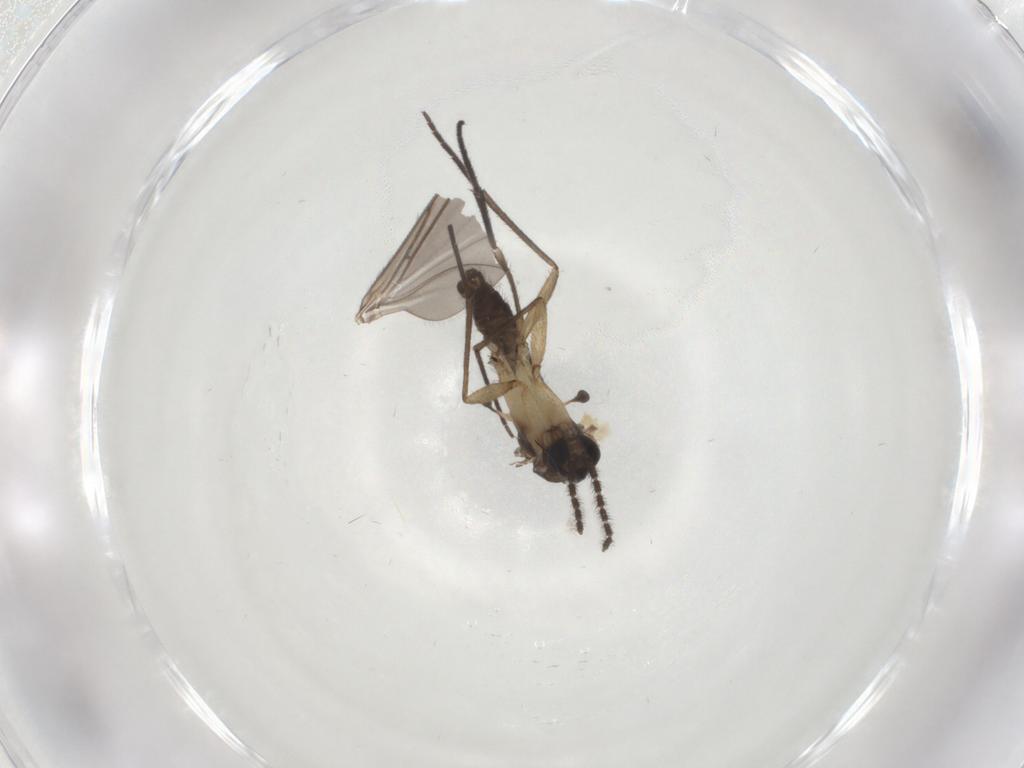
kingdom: Animalia
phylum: Arthropoda
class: Insecta
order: Diptera
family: Sciaridae
